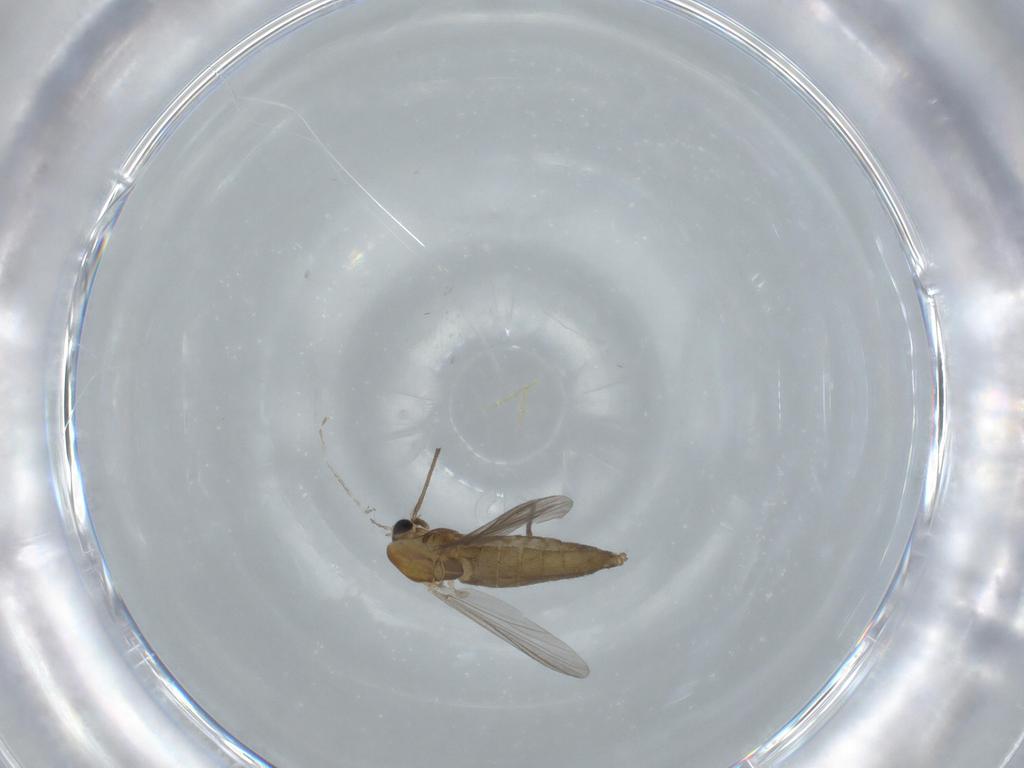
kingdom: Animalia
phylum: Arthropoda
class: Insecta
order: Diptera
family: Chironomidae
